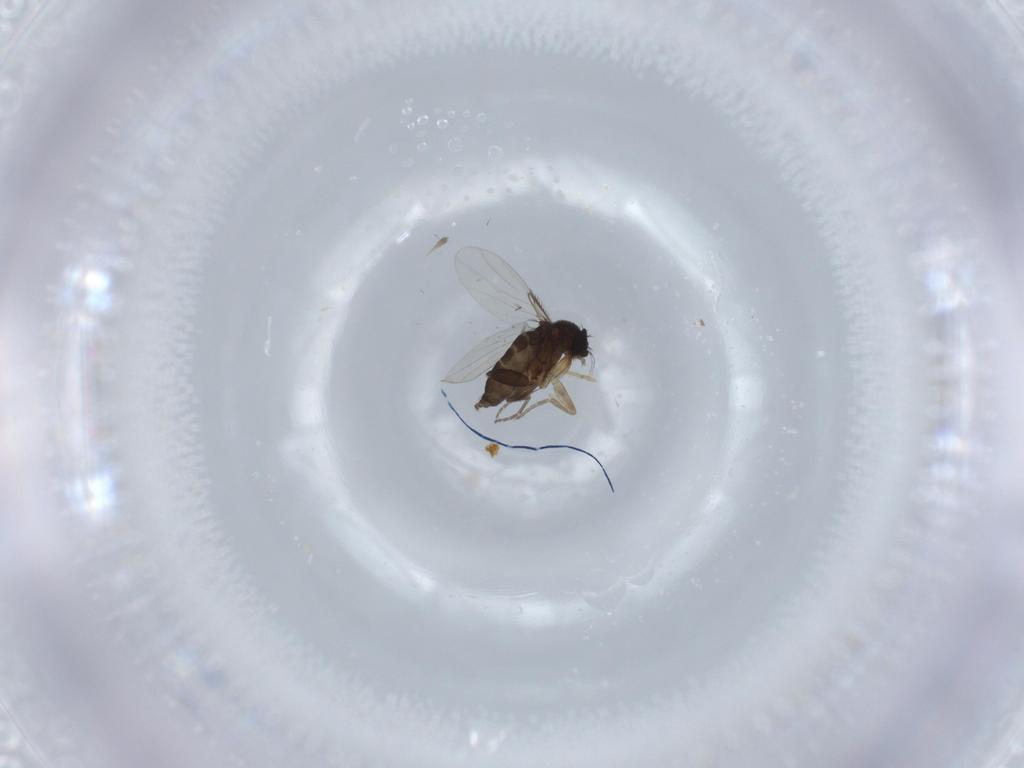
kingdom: Animalia
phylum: Arthropoda
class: Insecta
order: Diptera
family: Phoridae
